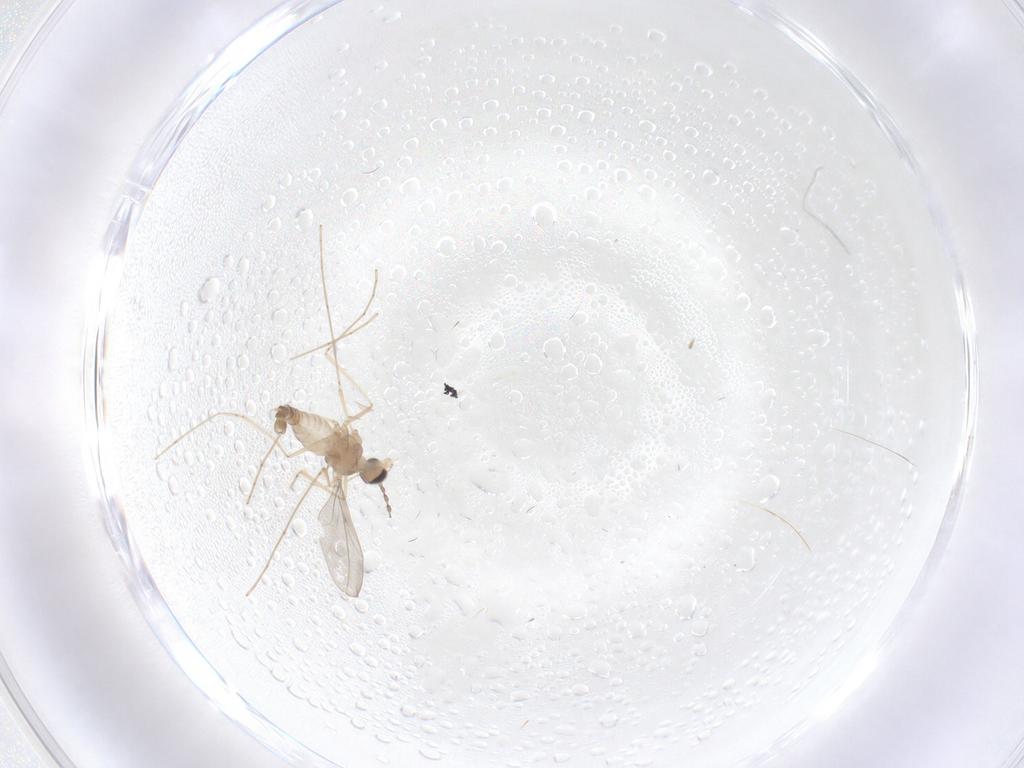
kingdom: Animalia
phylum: Arthropoda
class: Insecta
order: Diptera
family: Cecidomyiidae
